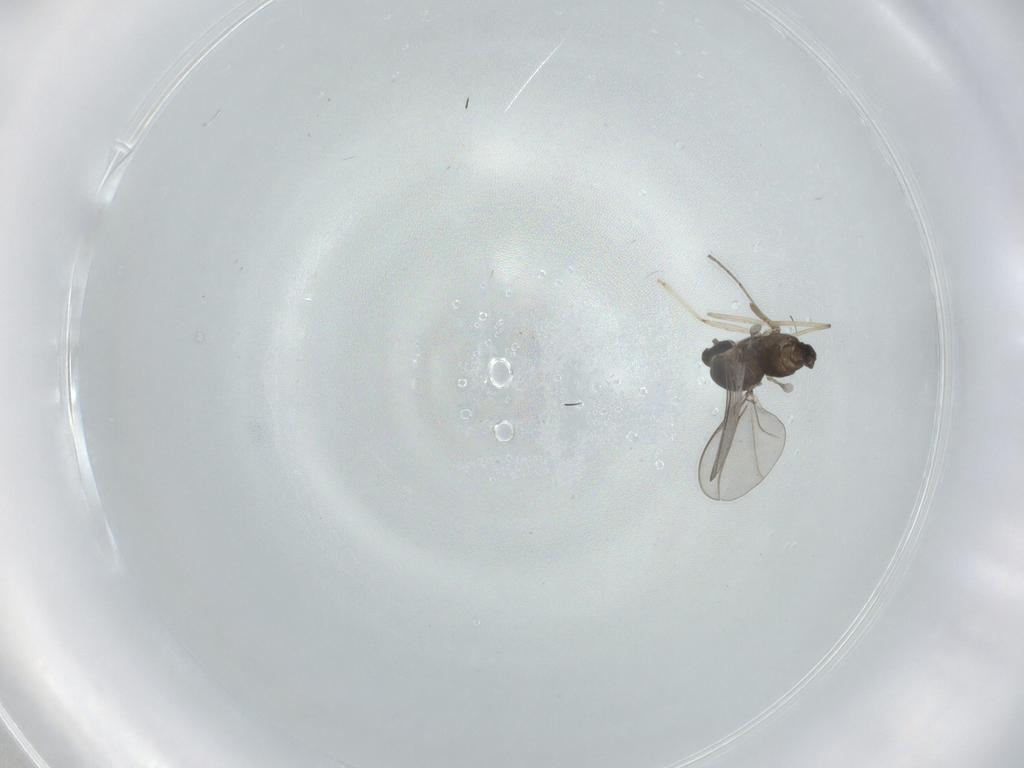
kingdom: Animalia
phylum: Arthropoda
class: Insecta
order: Diptera
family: Cecidomyiidae
